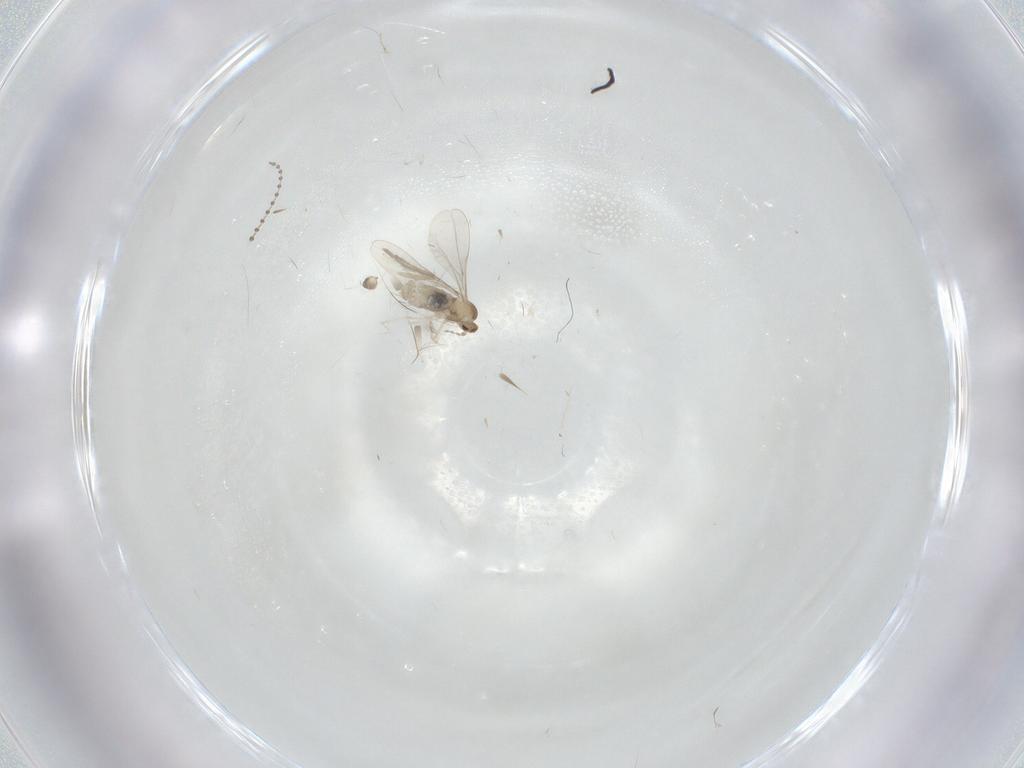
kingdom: Animalia
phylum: Arthropoda
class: Insecta
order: Diptera
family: Cecidomyiidae
